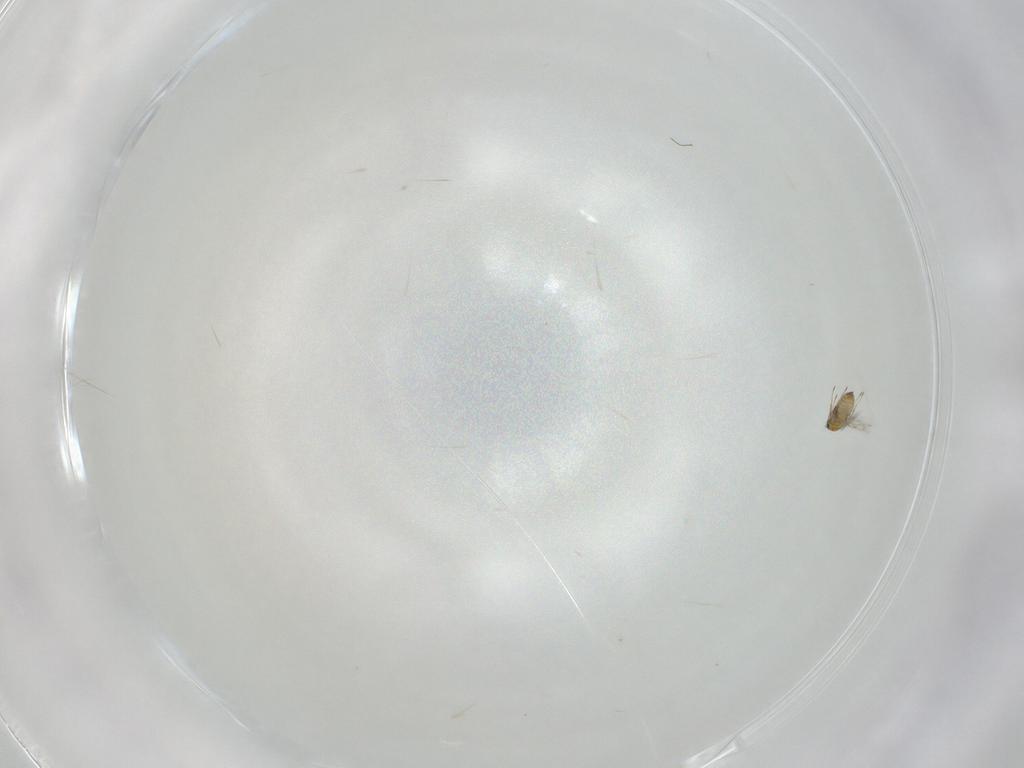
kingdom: Animalia
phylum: Arthropoda
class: Insecta
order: Hymenoptera
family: Trichogrammatidae
